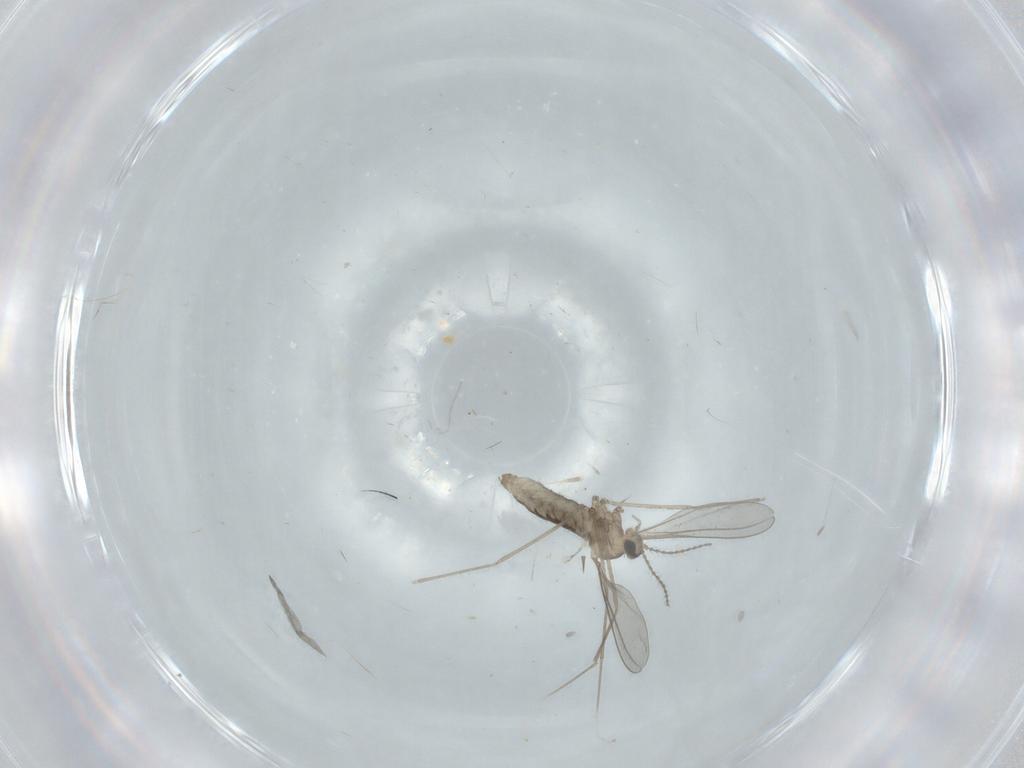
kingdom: Animalia
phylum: Arthropoda
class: Insecta
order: Diptera
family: Cecidomyiidae
